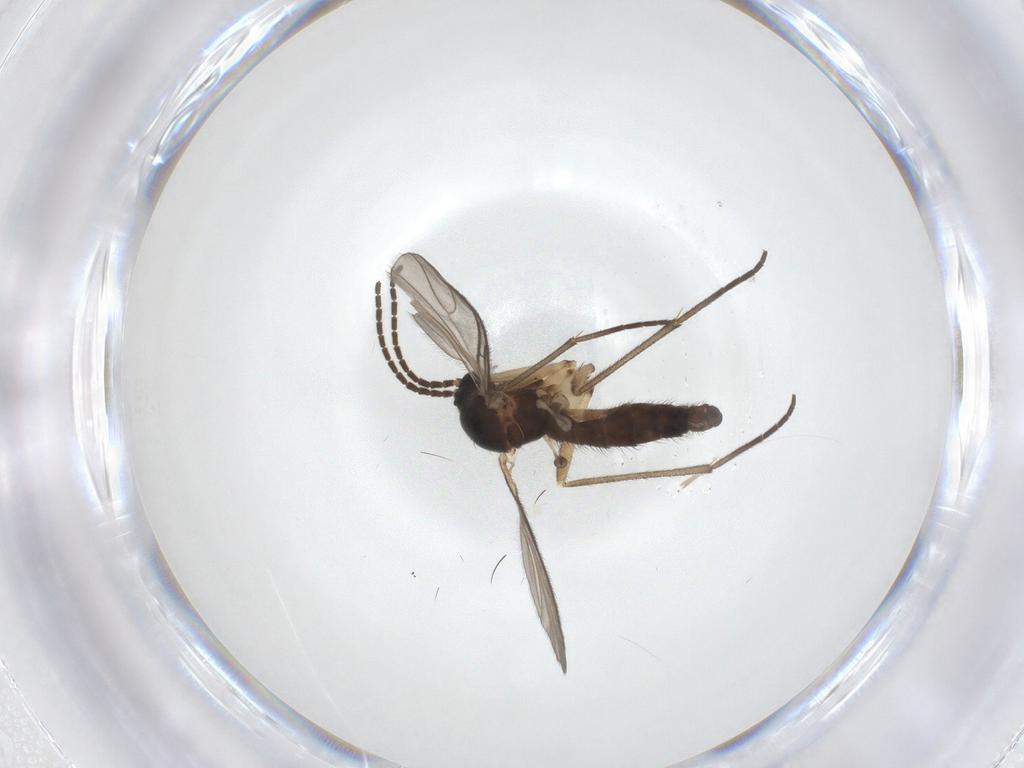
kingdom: Animalia
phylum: Arthropoda
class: Insecta
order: Diptera
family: Sciaridae
